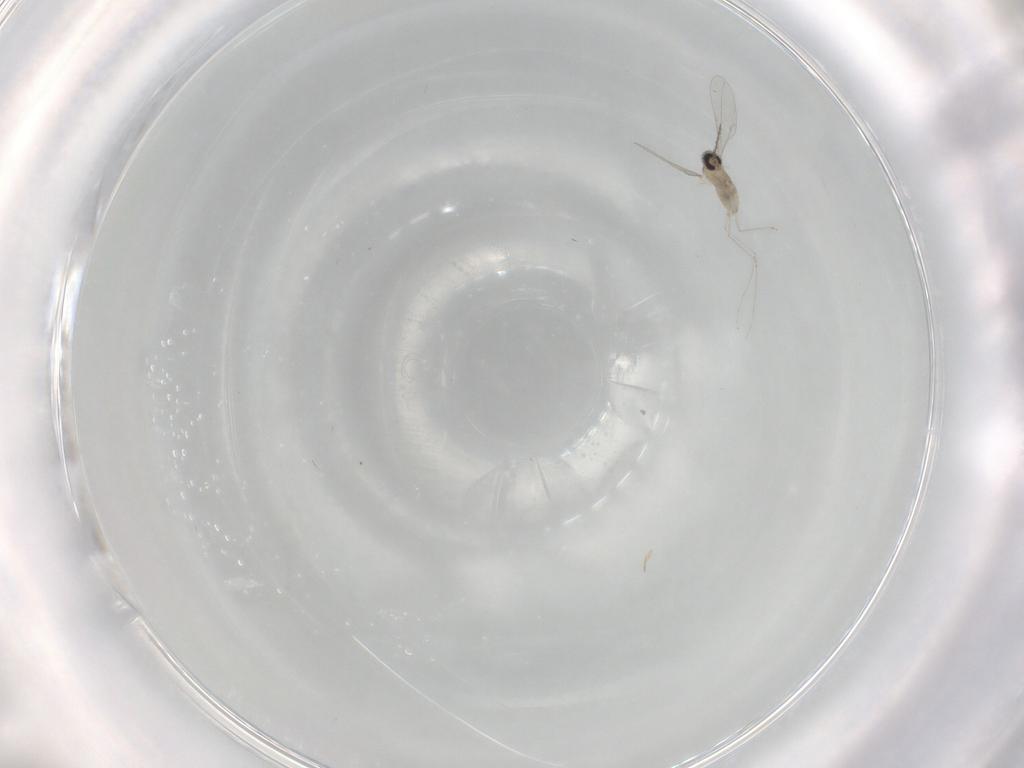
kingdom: Animalia
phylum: Arthropoda
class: Insecta
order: Diptera
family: Cecidomyiidae
